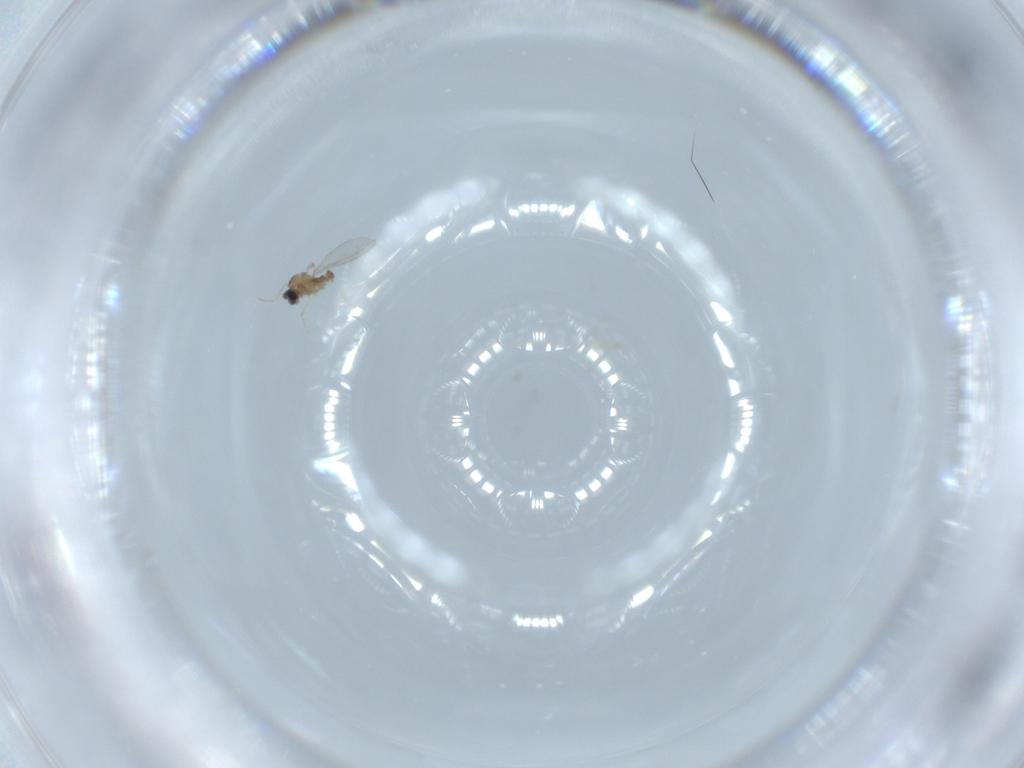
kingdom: Animalia
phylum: Arthropoda
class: Insecta
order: Diptera
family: Cecidomyiidae
